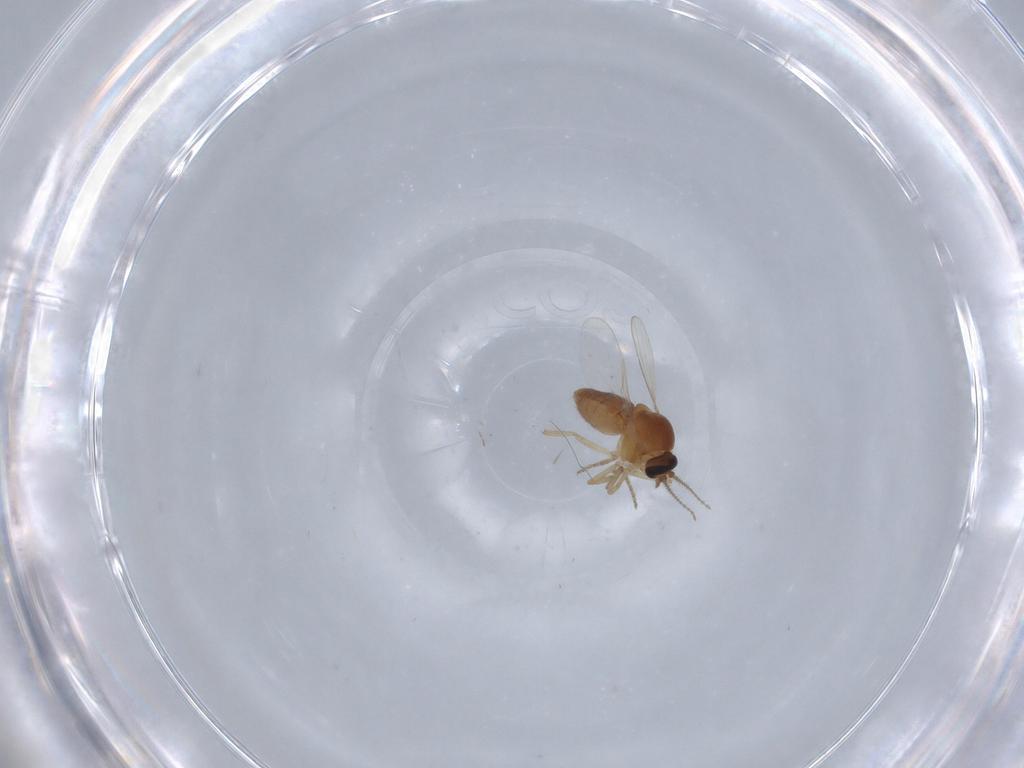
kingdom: Animalia
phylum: Arthropoda
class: Insecta
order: Diptera
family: Ceratopogonidae
